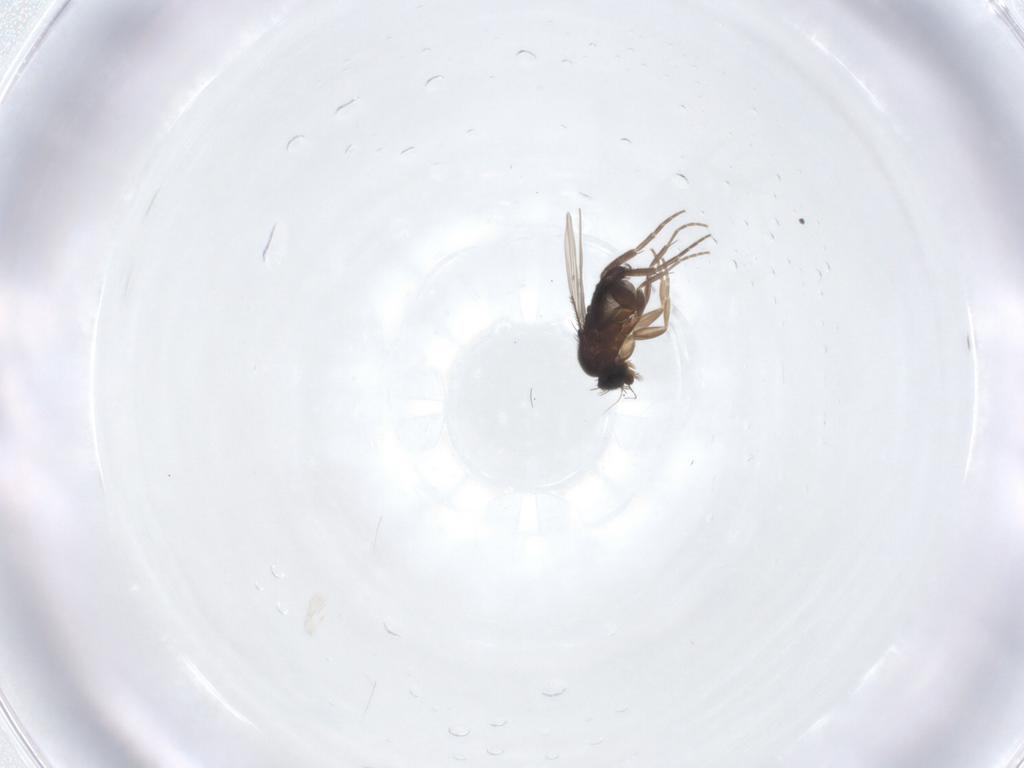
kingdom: Animalia
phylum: Arthropoda
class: Insecta
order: Diptera
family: Phoridae
